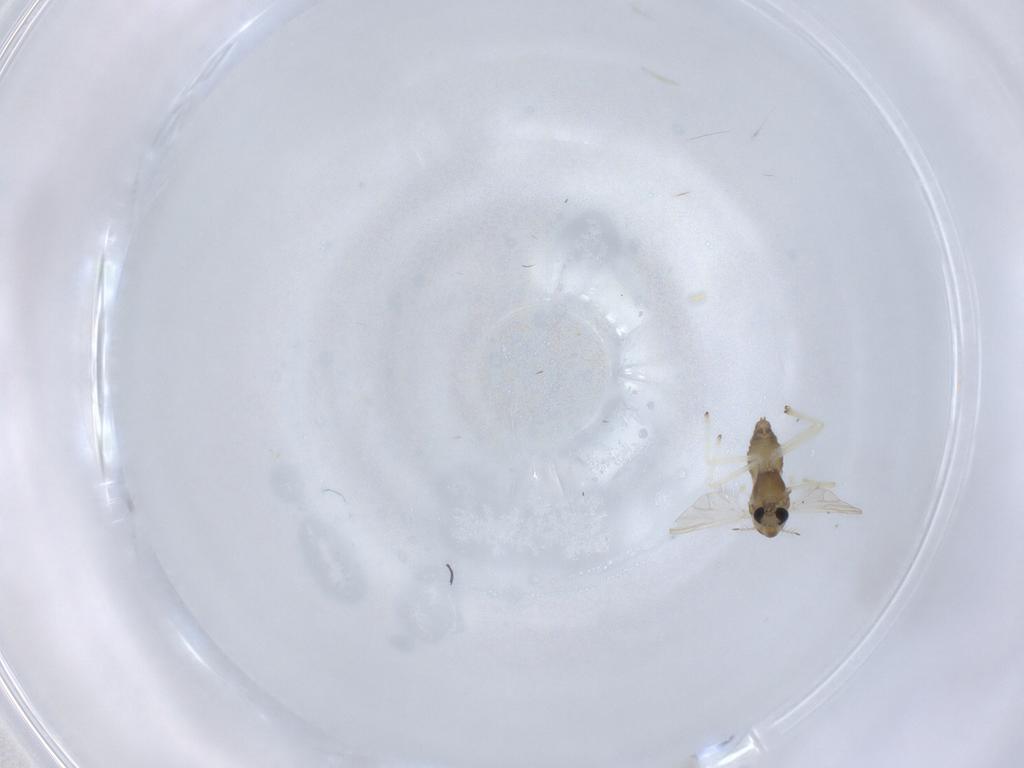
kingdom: Animalia
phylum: Arthropoda
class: Insecta
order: Diptera
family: Chironomidae
